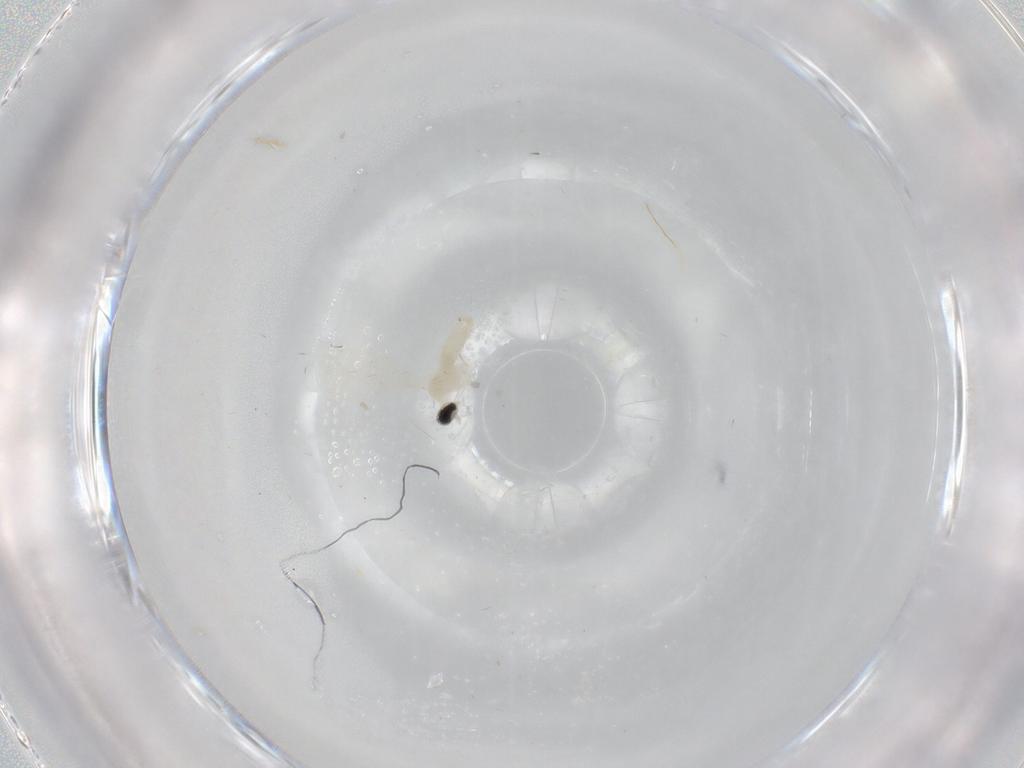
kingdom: Animalia
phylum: Arthropoda
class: Insecta
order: Diptera
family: Cecidomyiidae
